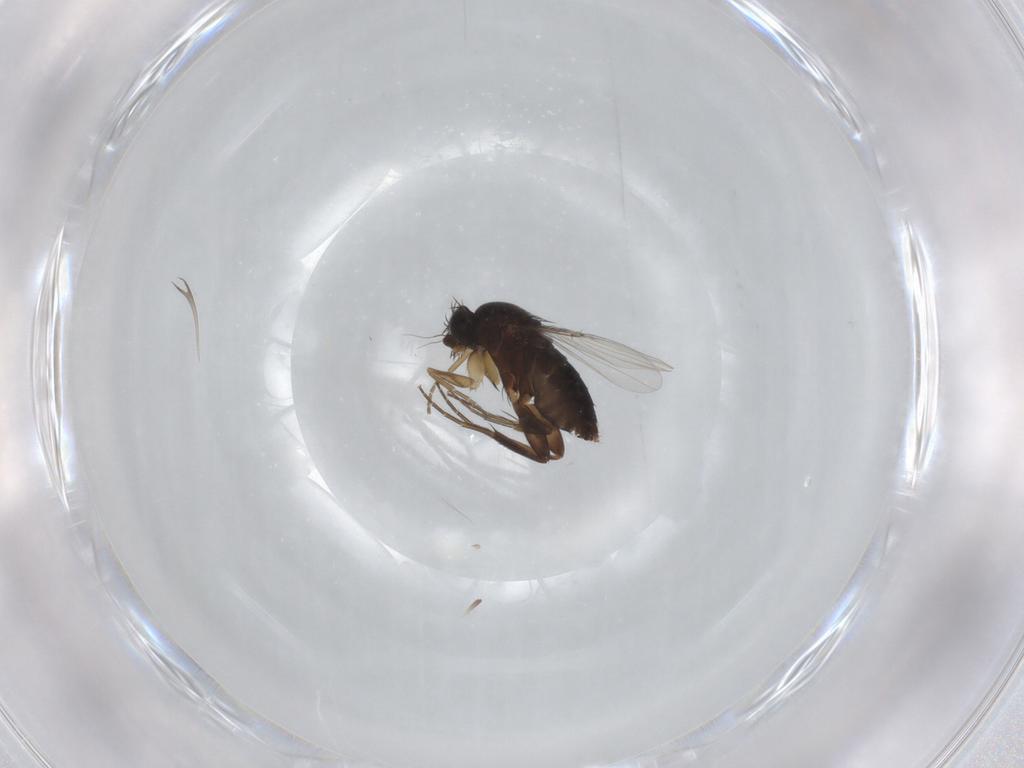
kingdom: Animalia
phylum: Arthropoda
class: Insecta
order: Diptera
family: Phoridae
